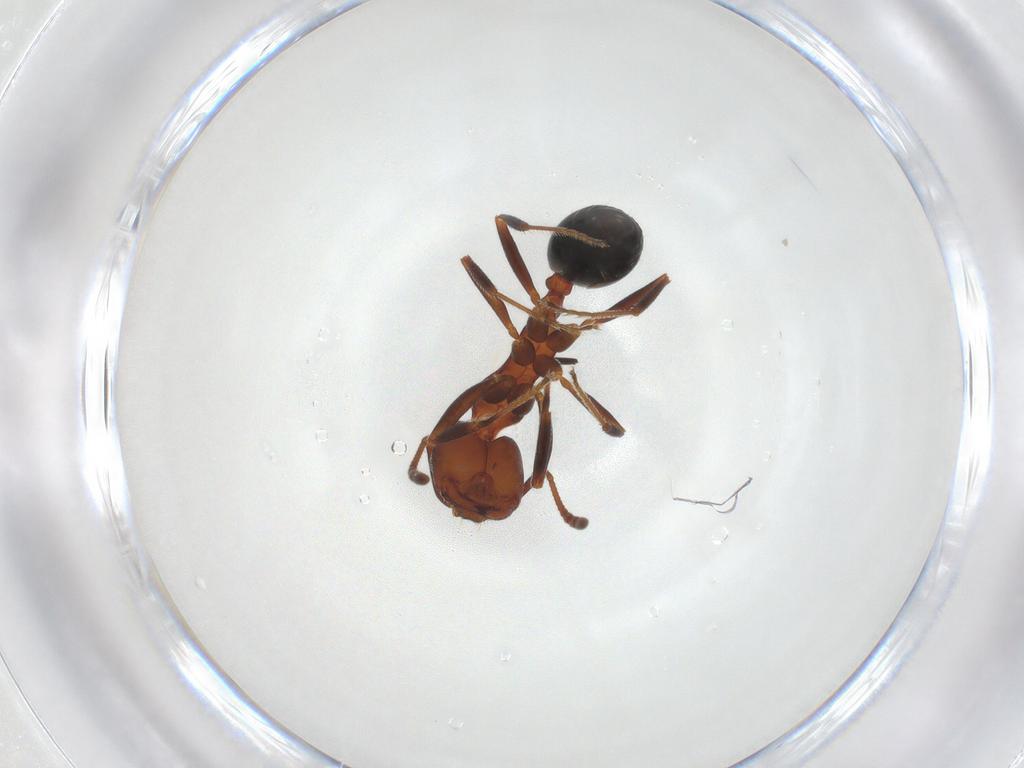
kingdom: Animalia
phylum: Arthropoda
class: Insecta
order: Hymenoptera
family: Formicidae
